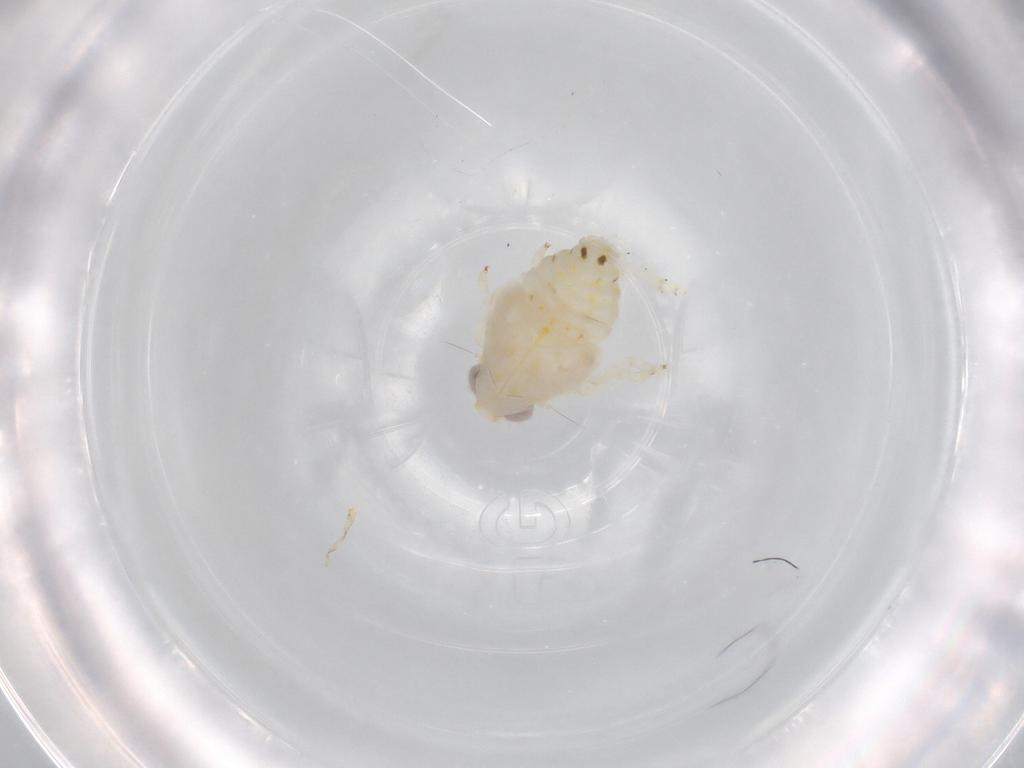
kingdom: Animalia
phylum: Arthropoda
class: Insecta
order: Hemiptera
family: Nogodinidae
